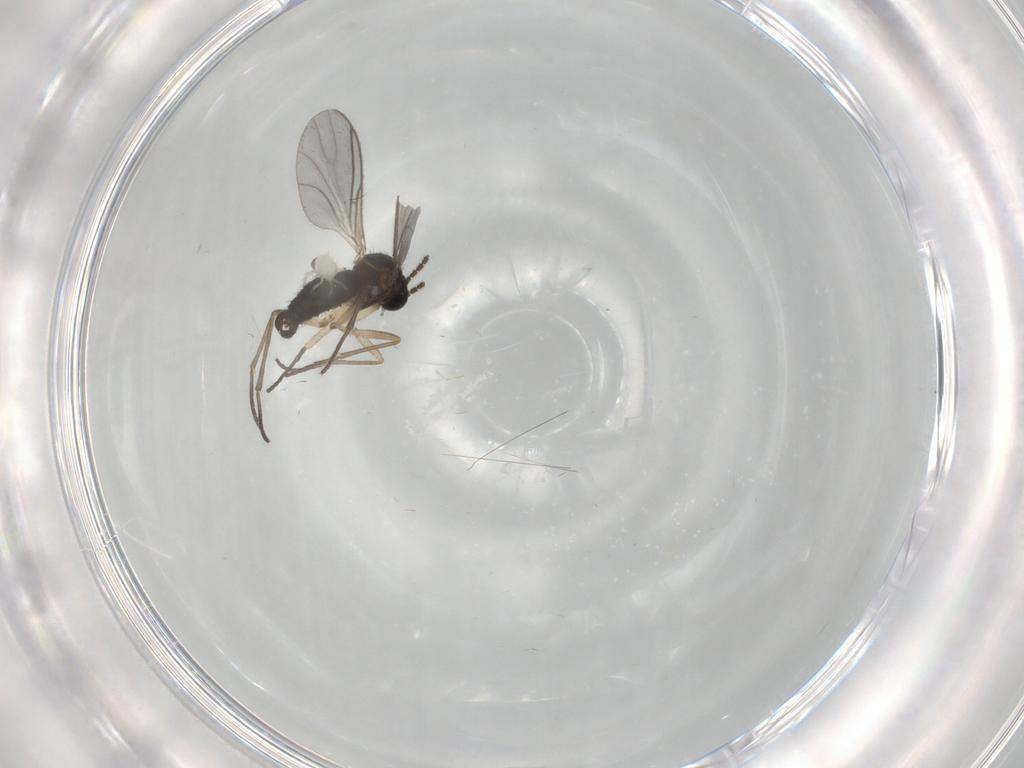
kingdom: Animalia
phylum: Arthropoda
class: Insecta
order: Diptera
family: Sciaridae
